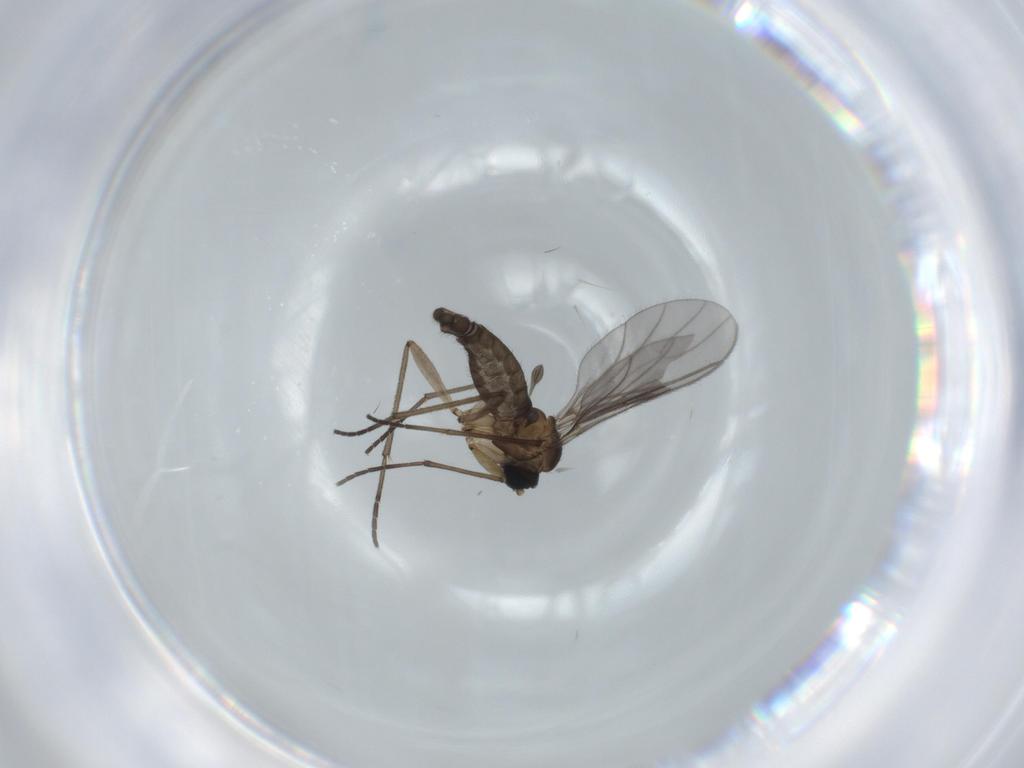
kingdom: Animalia
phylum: Arthropoda
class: Insecta
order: Diptera
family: Sciaridae
